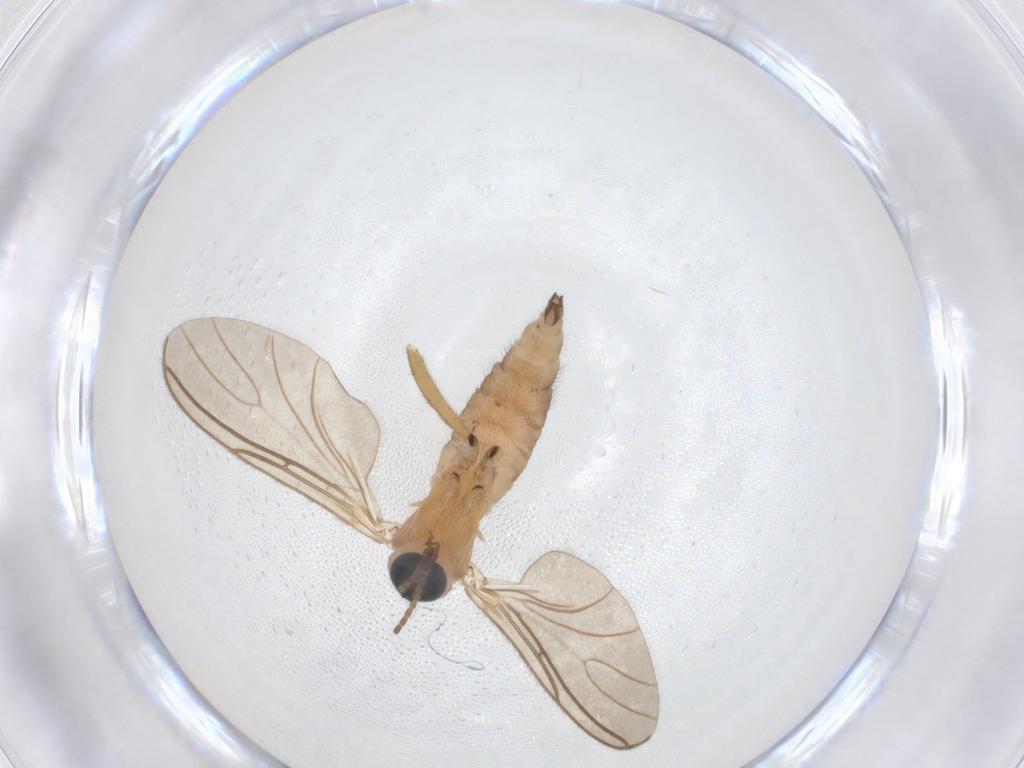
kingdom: Animalia
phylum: Arthropoda
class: Insecta
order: Diptera
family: Sciaridae
